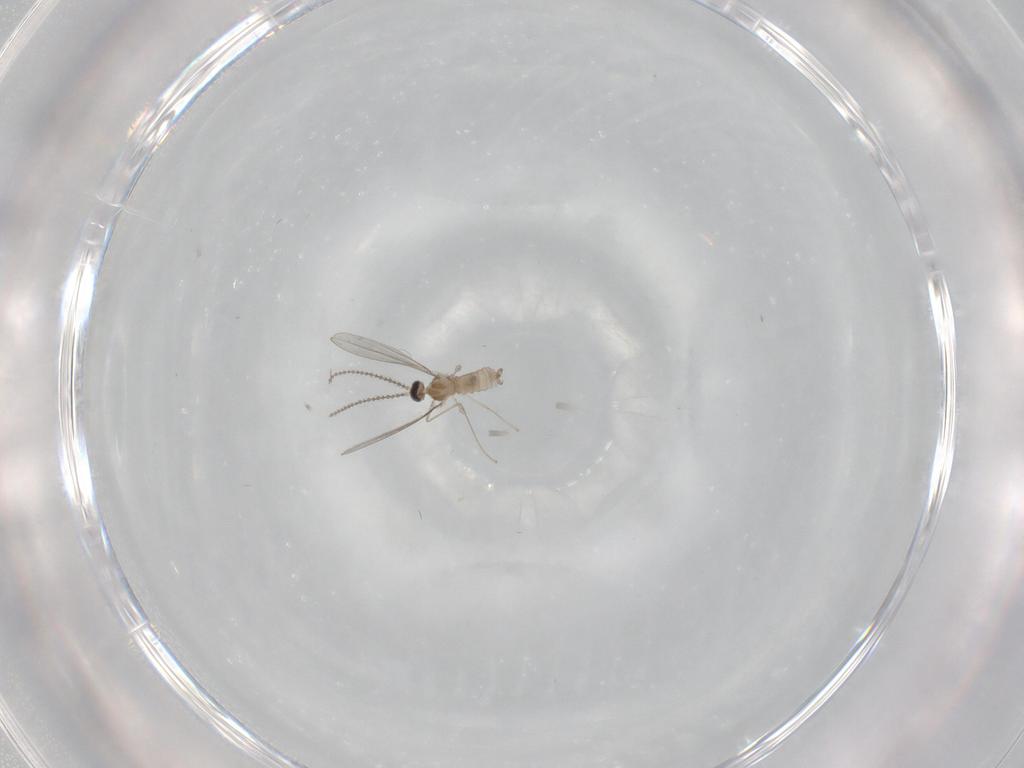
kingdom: Animalia
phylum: Arthropoda
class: Insecta
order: Diptera
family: Cecidomyiidae
